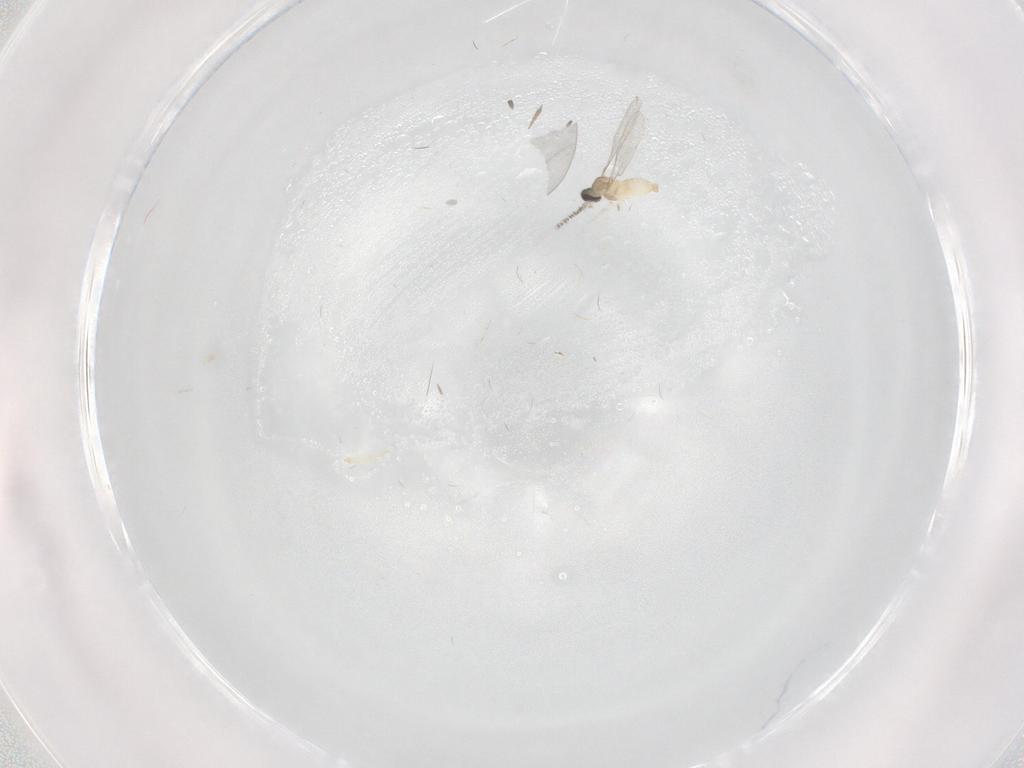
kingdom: Animalia
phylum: Arthropoda
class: Insecta
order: Diptera
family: Cecidomyiidae
